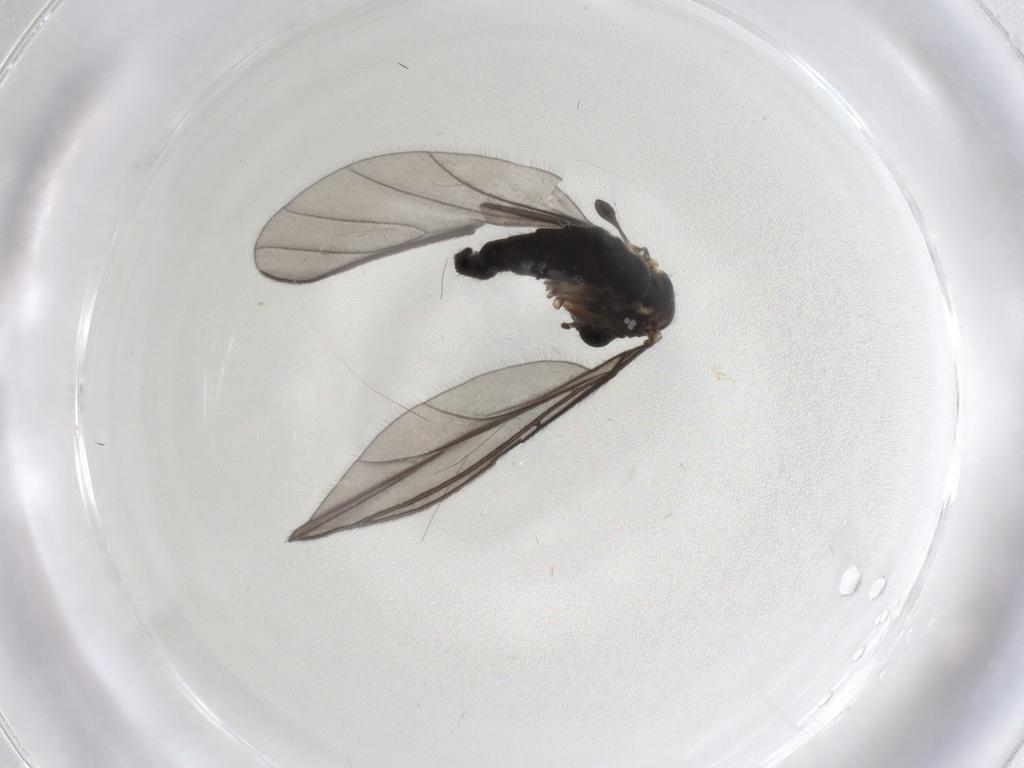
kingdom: Animalia
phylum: Arthropoda
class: Insecta
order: Diptera
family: Sciaridae
